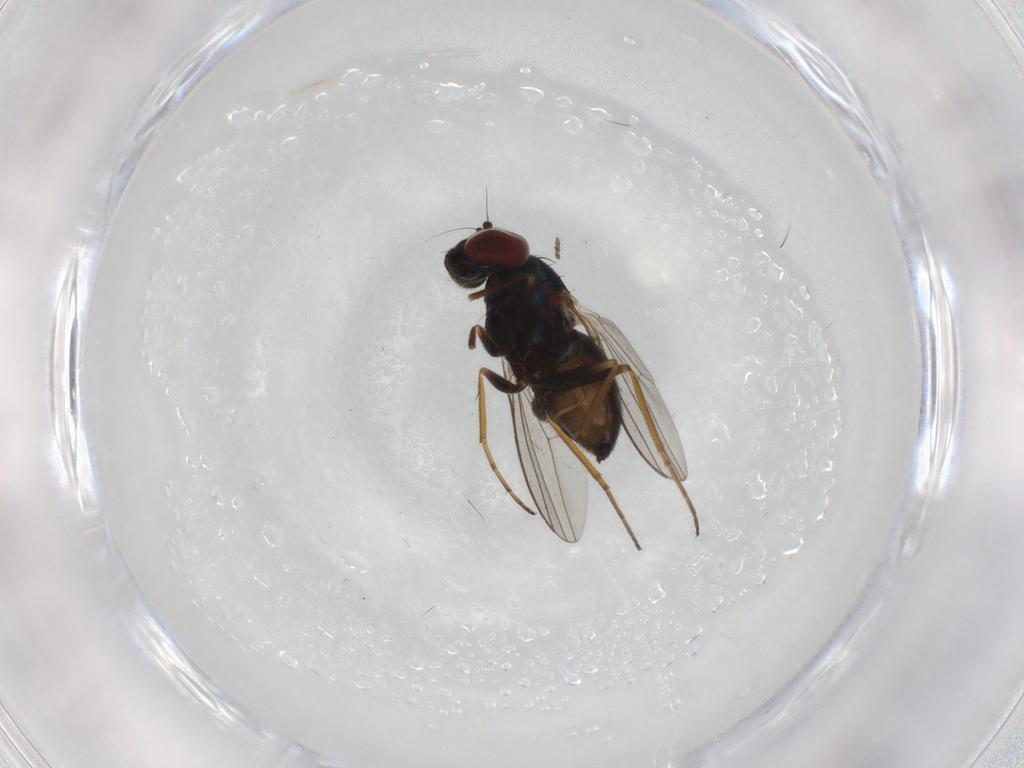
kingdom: Animalia
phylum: Arthropoda
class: Insecta
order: Diptera
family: Dolichopodidae
